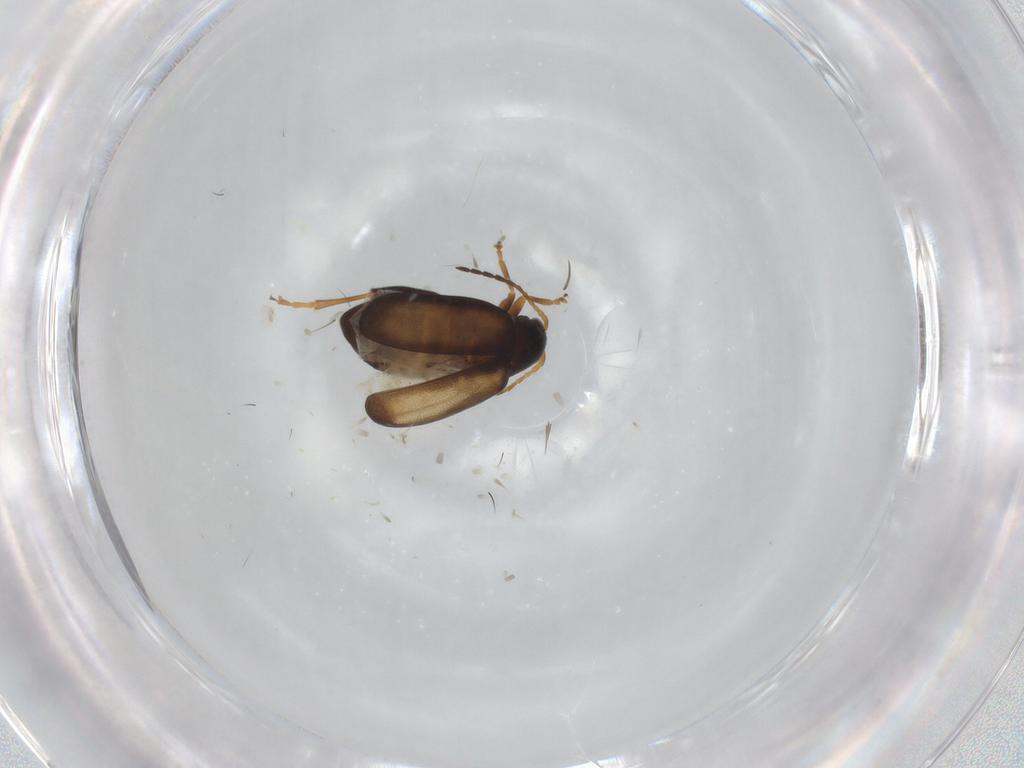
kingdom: Animalia
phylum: Arthropoda
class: Insecta
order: Coleoptera
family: Chrysomelidae
